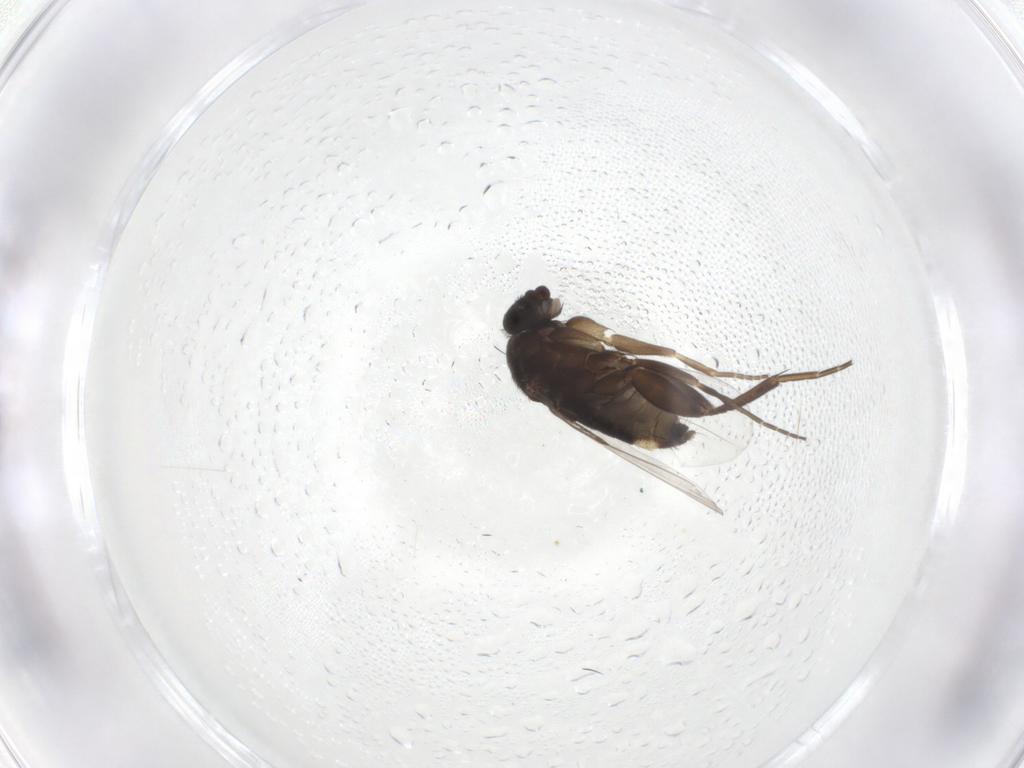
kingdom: Animalia
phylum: Arthropoda
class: Insecta
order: Diptera
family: Phoridae
